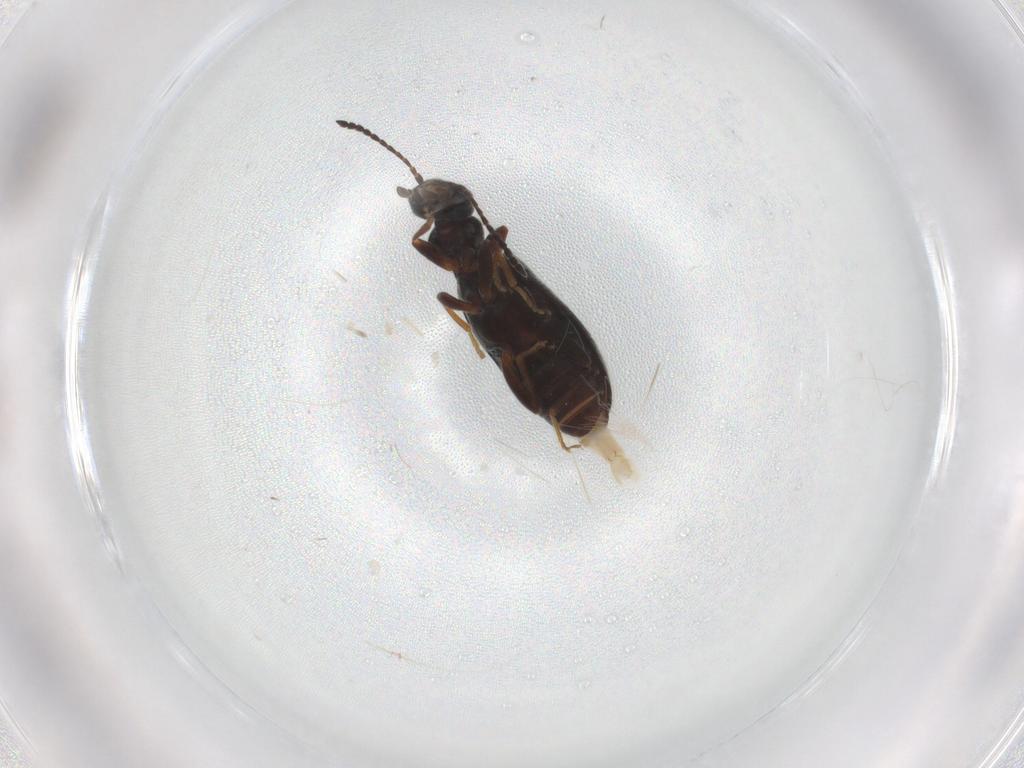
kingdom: Animalia
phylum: Arthropoda
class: Insecta
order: Coleoptera
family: Anthicidae
